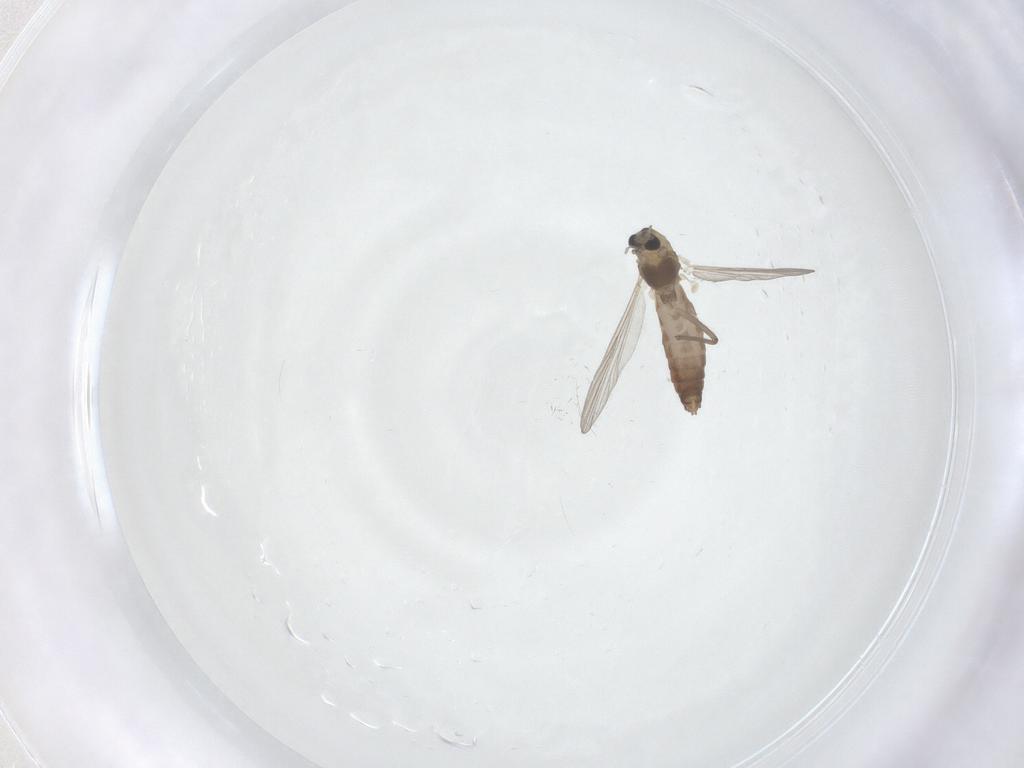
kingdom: Animalia
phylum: Arthropoda
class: Insecta
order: Diptera
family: Chironomidae
